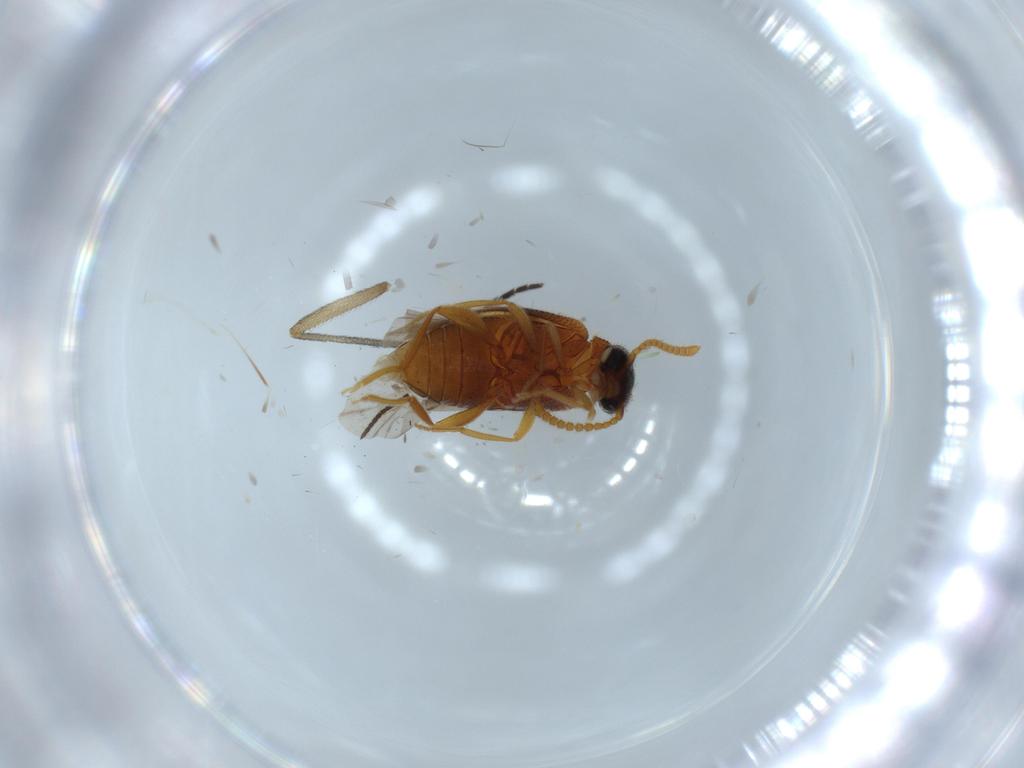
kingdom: Animalia
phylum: Arthropoda
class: Insecta
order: Coleoptera
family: Aderidae
